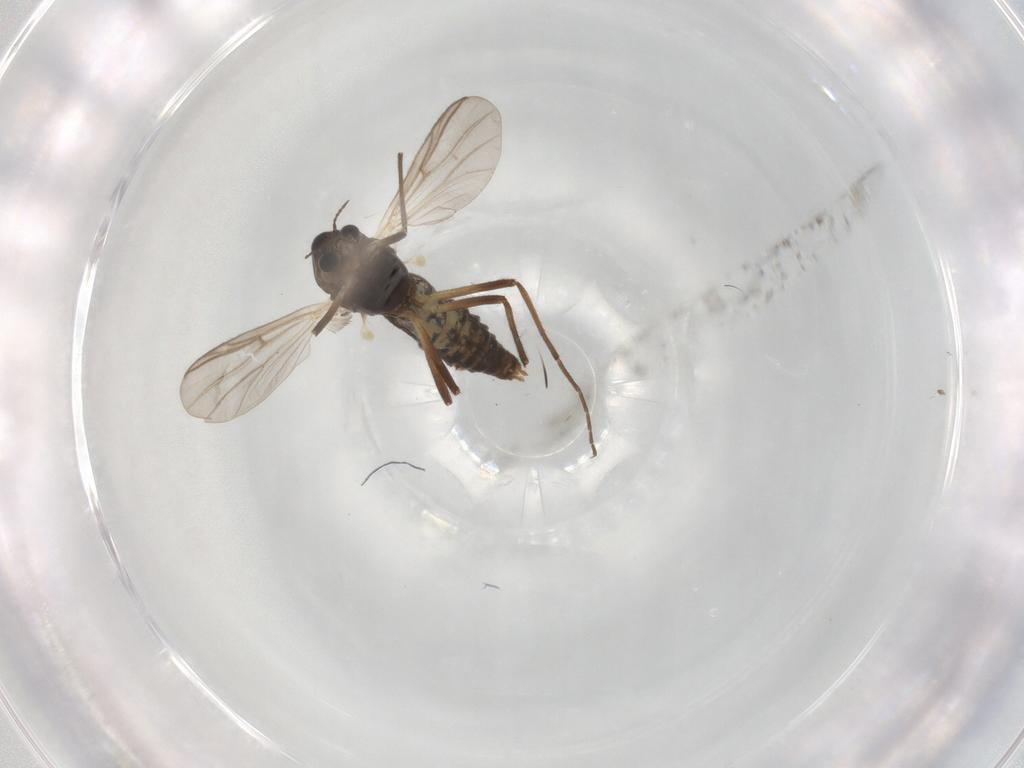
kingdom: Animalia
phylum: Arthropoda
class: Insecta
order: Diptera
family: Chironomidae
